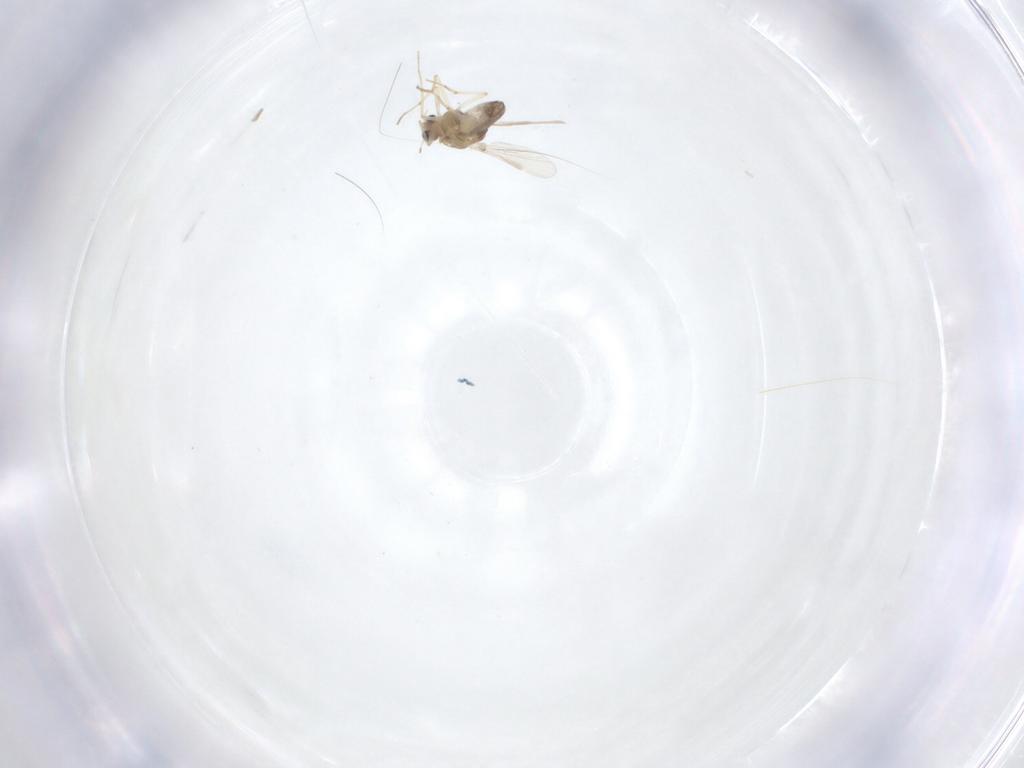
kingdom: Animalia
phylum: Arthropoda
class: Insecta
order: Diptera
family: Chironomidae
